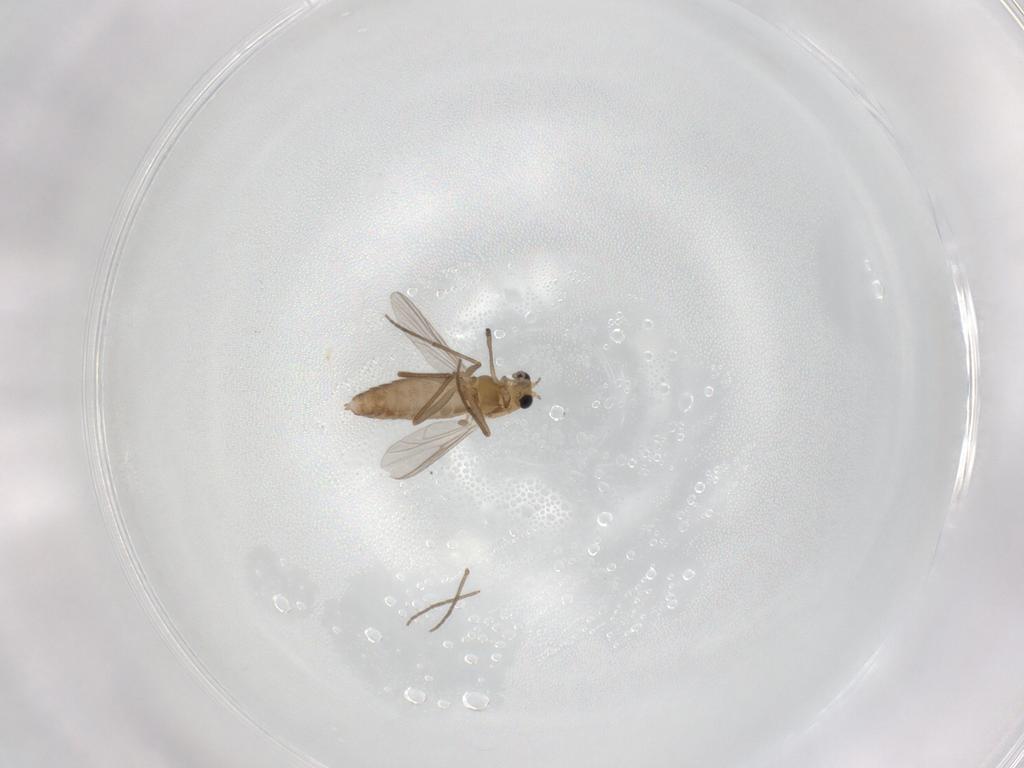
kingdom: Animalia
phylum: Arthropoda
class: Insecta
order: Diptera
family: Chironomidae
